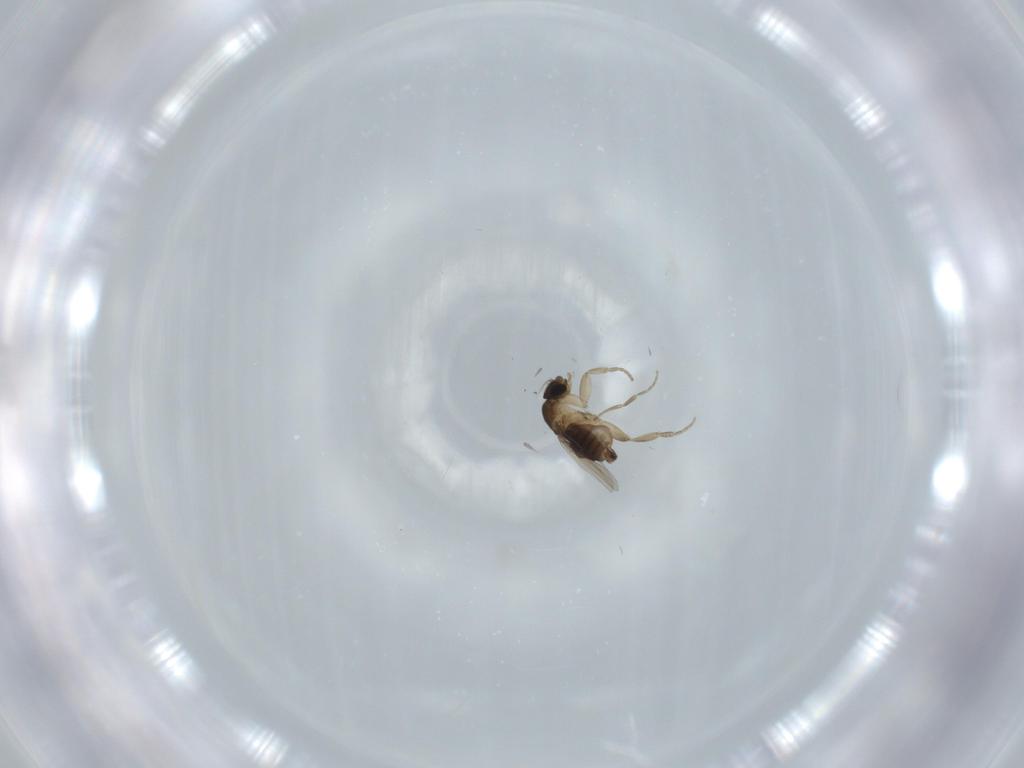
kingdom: Animalia
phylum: Arthropoda
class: Insecta
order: Diptera
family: Phoridae
